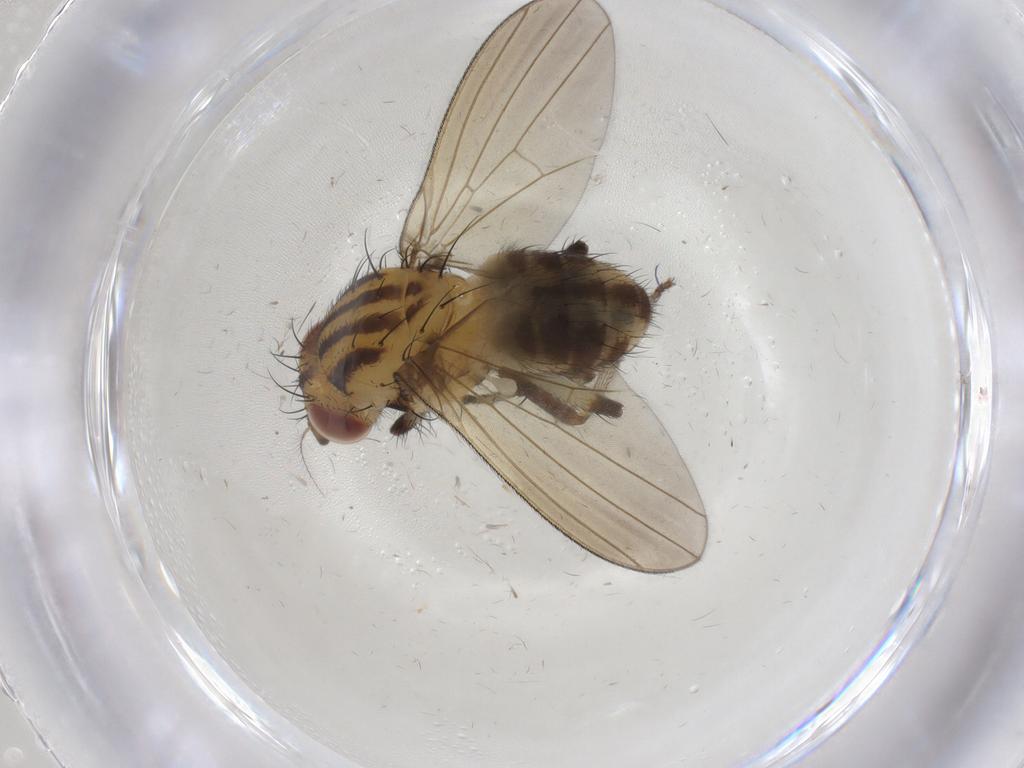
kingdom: Animalia
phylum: Arthropoda
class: Insecta
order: Diptera
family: Lauxaniidae
